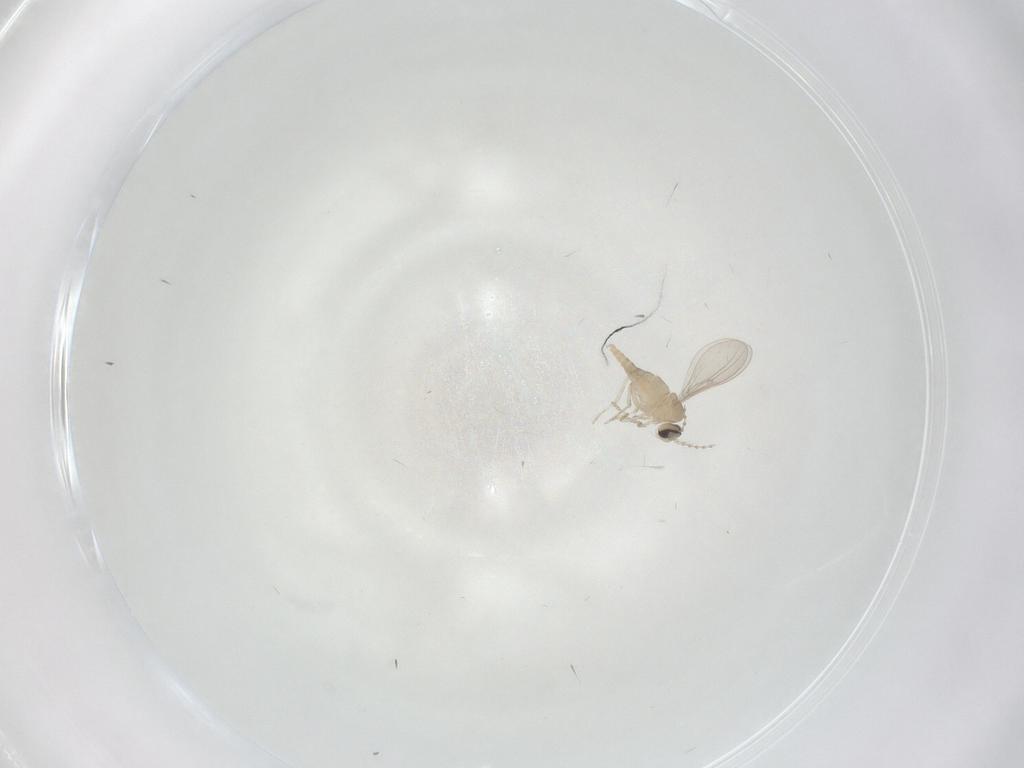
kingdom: Animalia
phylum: Arthropoda
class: Insecta
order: Diptera
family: Cecidomyiidae
